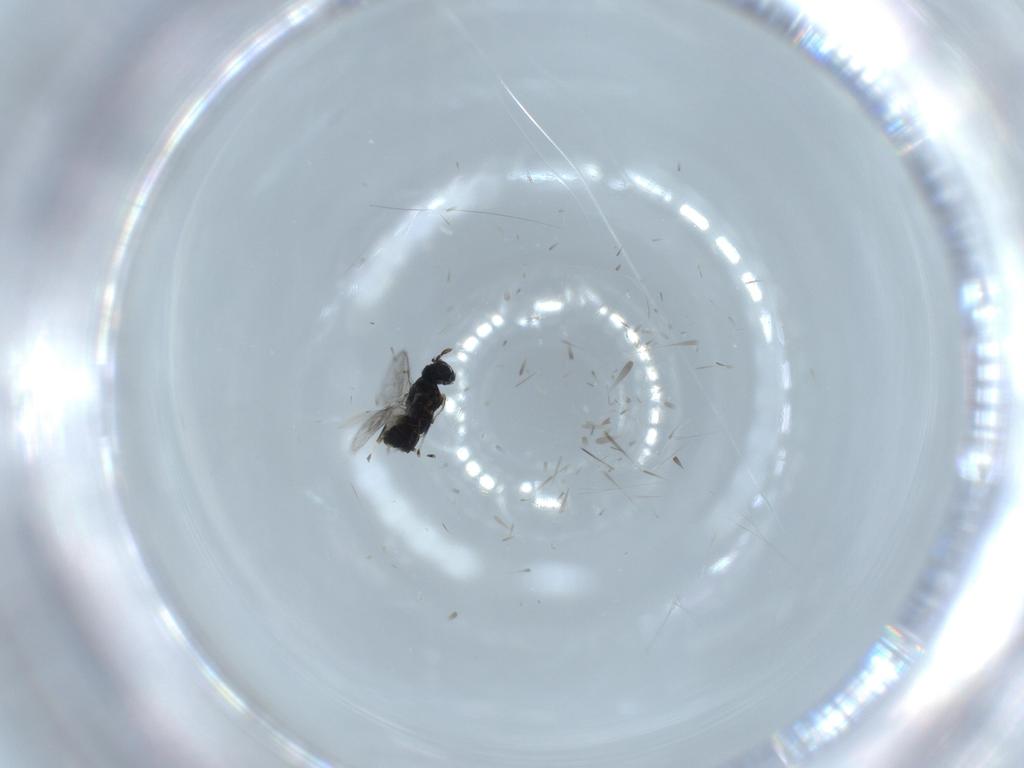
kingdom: Animalia
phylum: Arthropoda
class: Insecta
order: Hymenoptera
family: Eulophidae
